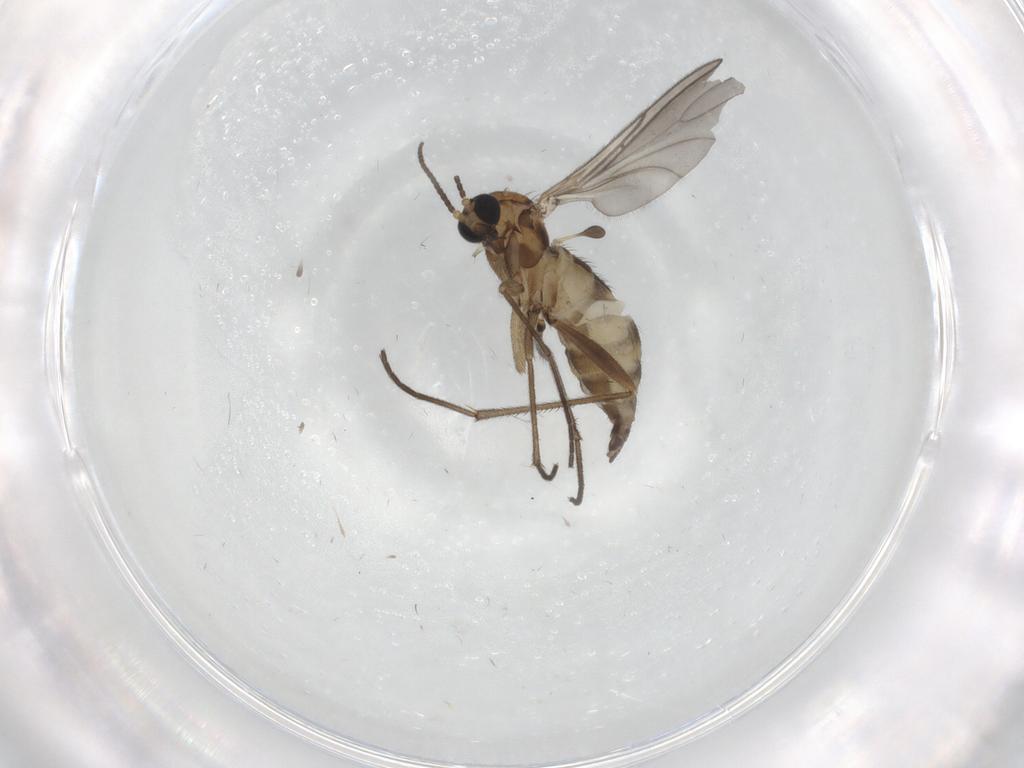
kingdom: Animalia
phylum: Arthropoda
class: Insecta
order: Diptera
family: Sciaridae
